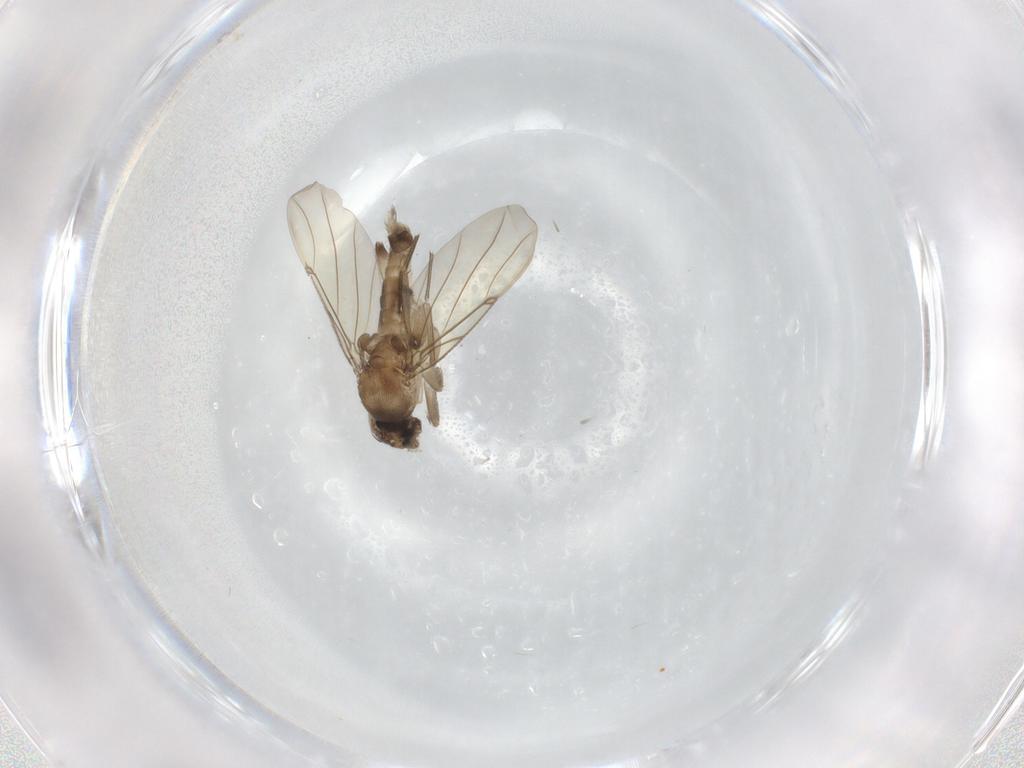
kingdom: Animalia
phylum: Arthropoda
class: Insecta
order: Diptera
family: Sciaridae
